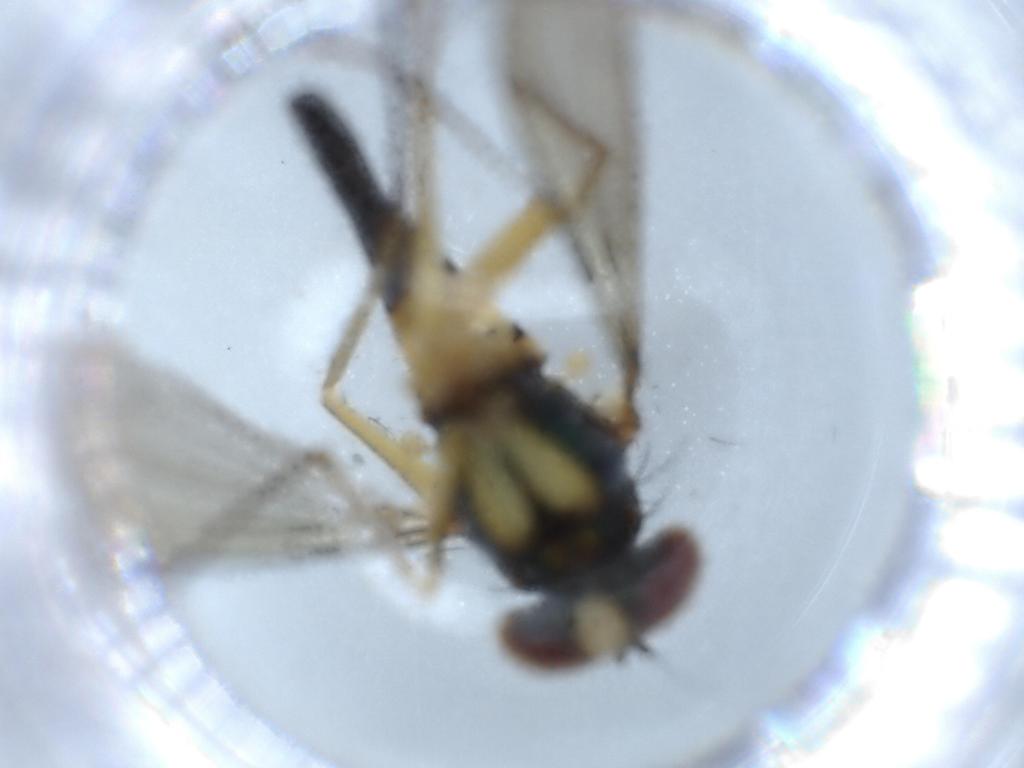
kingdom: Animalia
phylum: Arthropoda
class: Insecta
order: Diptera
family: Dolichopodidae
